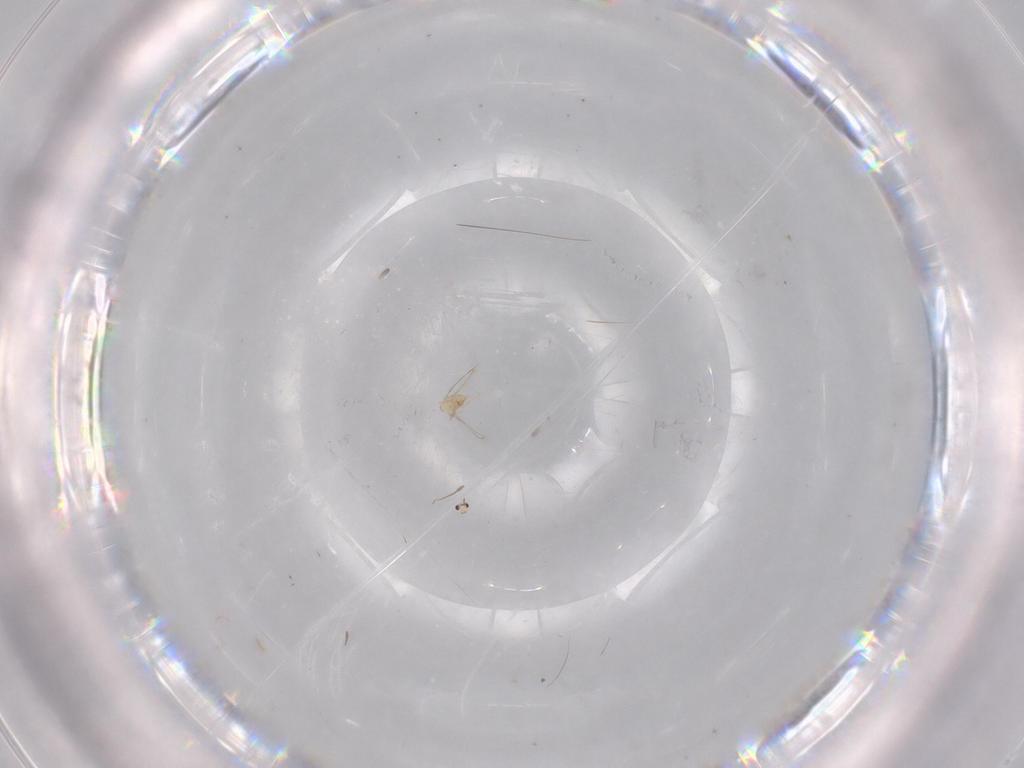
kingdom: Animalia
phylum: Arthropoda
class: Insecta
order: Hymenoptera
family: Mymaridae
